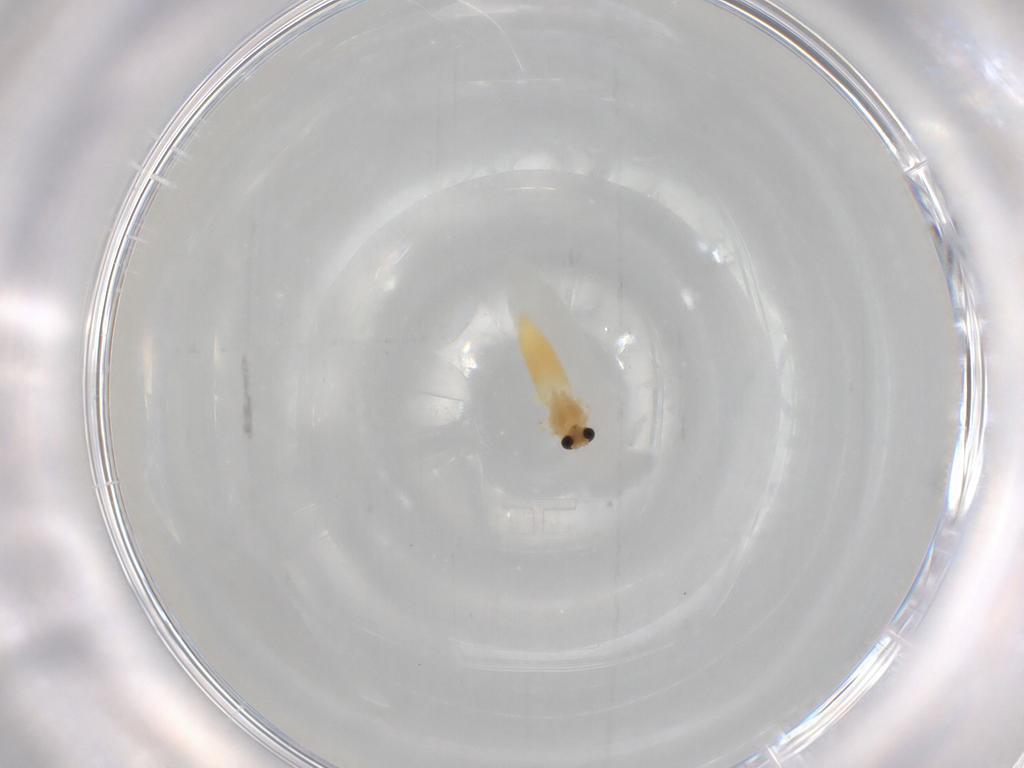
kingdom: Animalia
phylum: Arthropoda
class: Insecta
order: Diptera
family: Chironomidae
